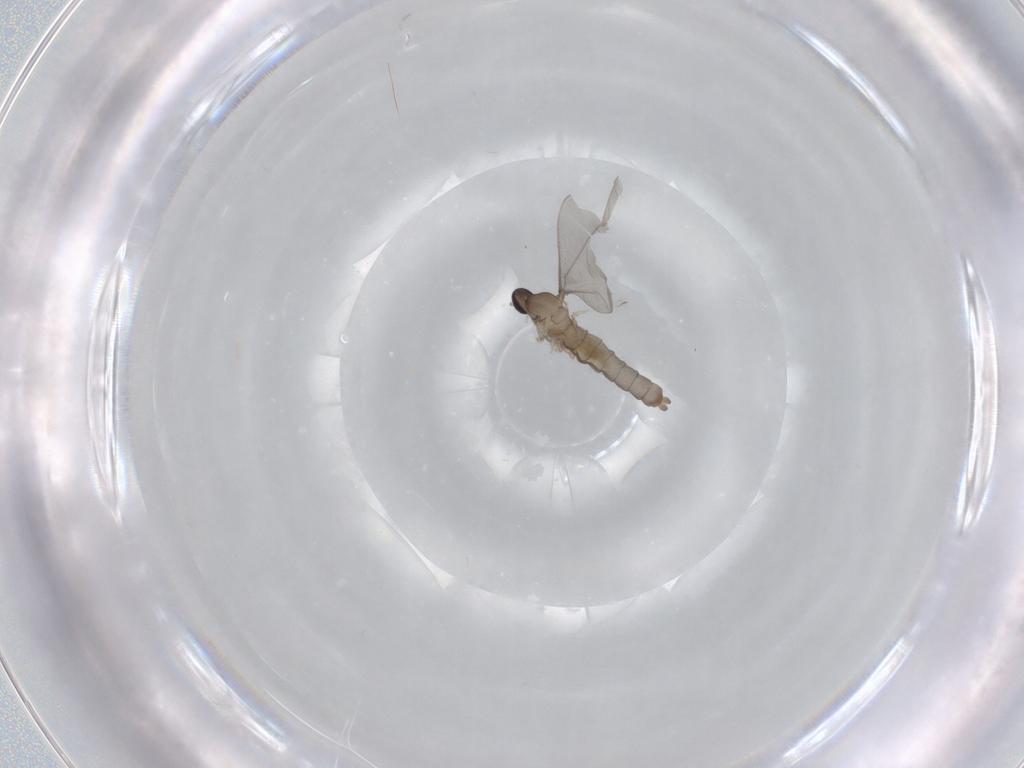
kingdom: Animalia
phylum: Arthropoda
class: Insecta
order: Diptera
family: Cecidomyiidae
